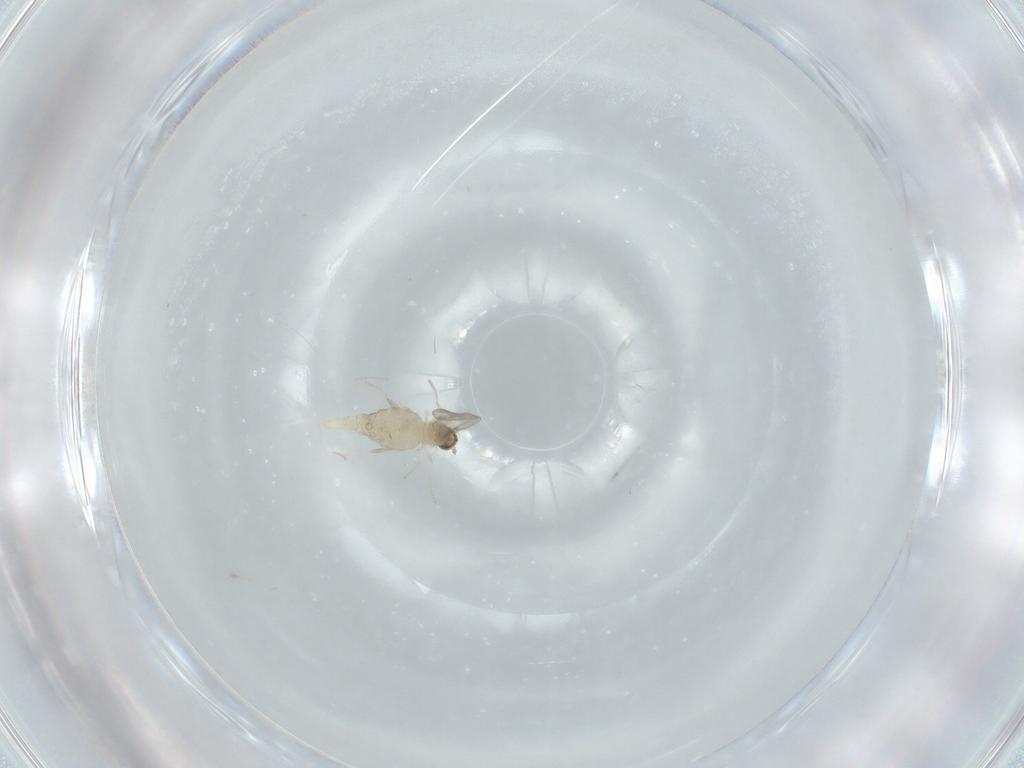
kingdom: Animalia
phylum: Arthropoda
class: Insecta
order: Diptera
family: Cecidomyiidae
